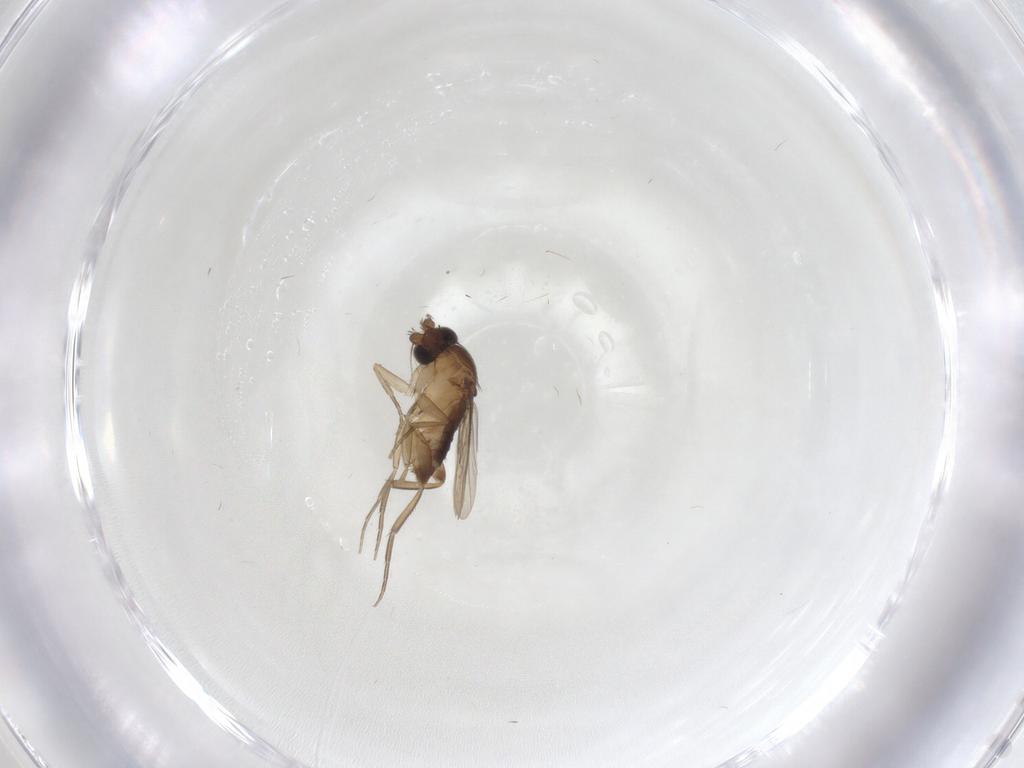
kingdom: Animalia
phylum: Arthropoda
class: Insecta
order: Diptera
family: Phoridae
